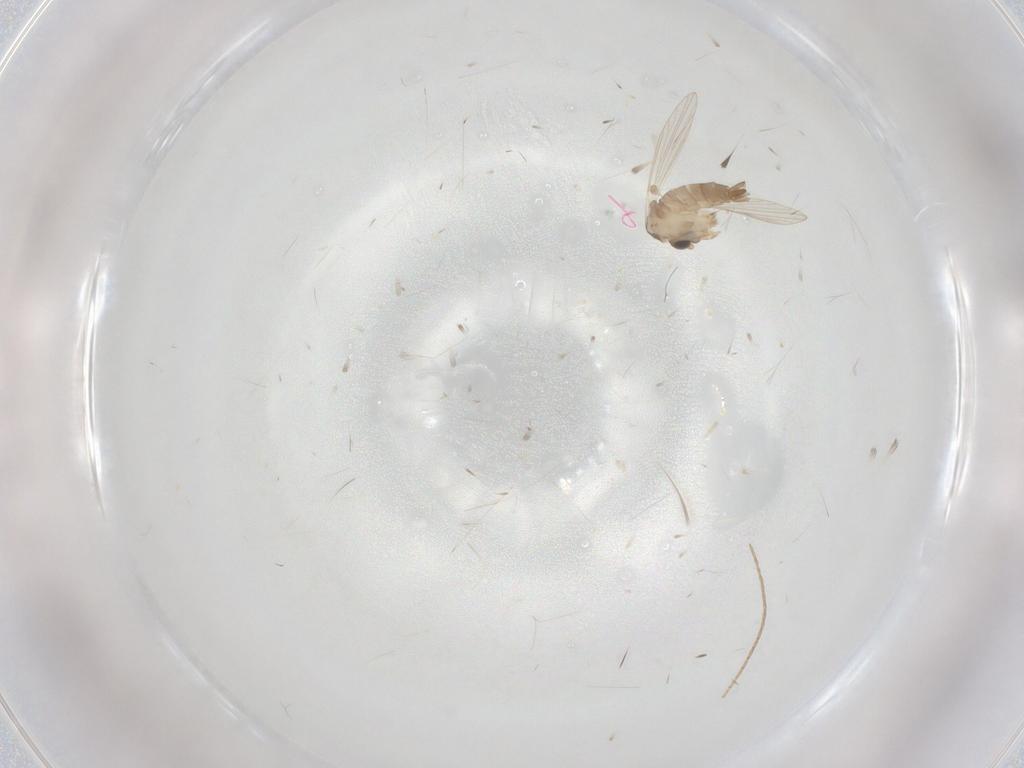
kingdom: Animalia
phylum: Arthropoda
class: Insecta
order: Diptera
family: Psychodidae
